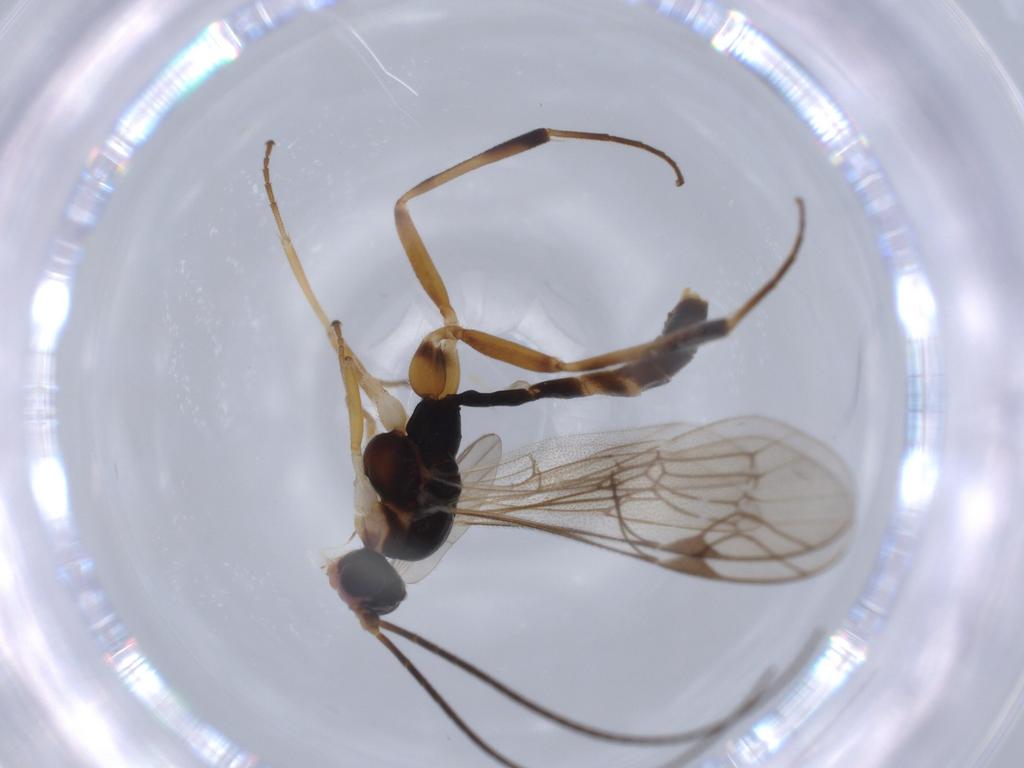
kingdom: Animalia
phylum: Arthropoda
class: Insecta
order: Hymenoptera
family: Ichneumonidae
